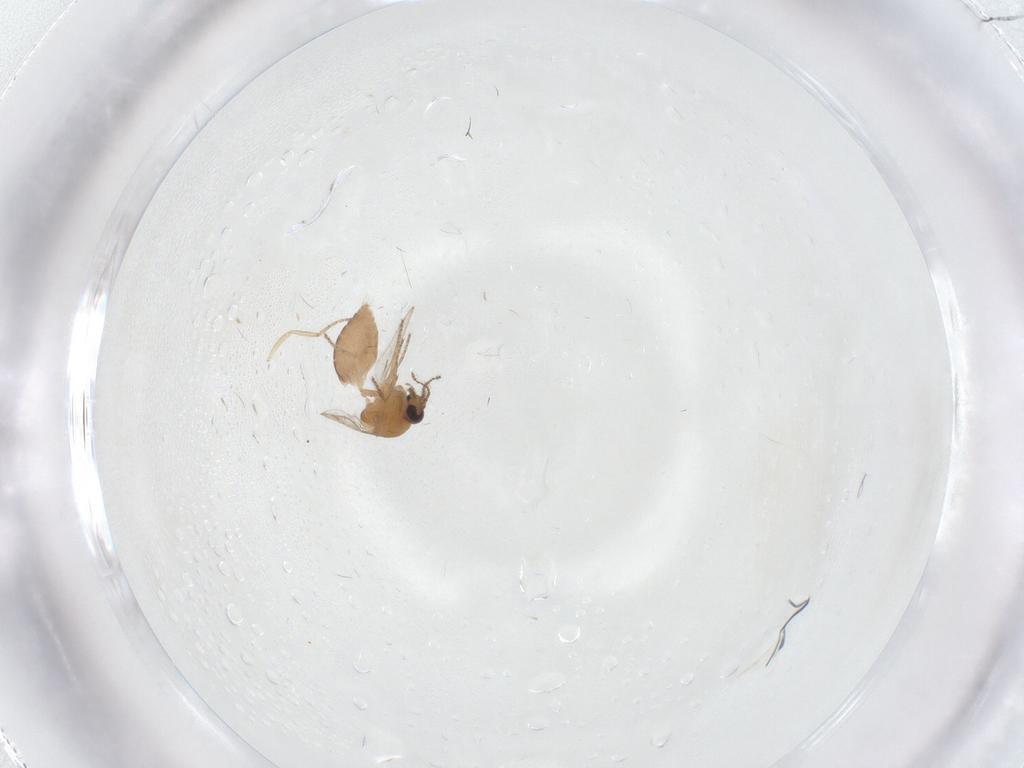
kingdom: Animalia
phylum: Arthropoda
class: Insecta
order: Diptera
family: Ceratopogonidae
